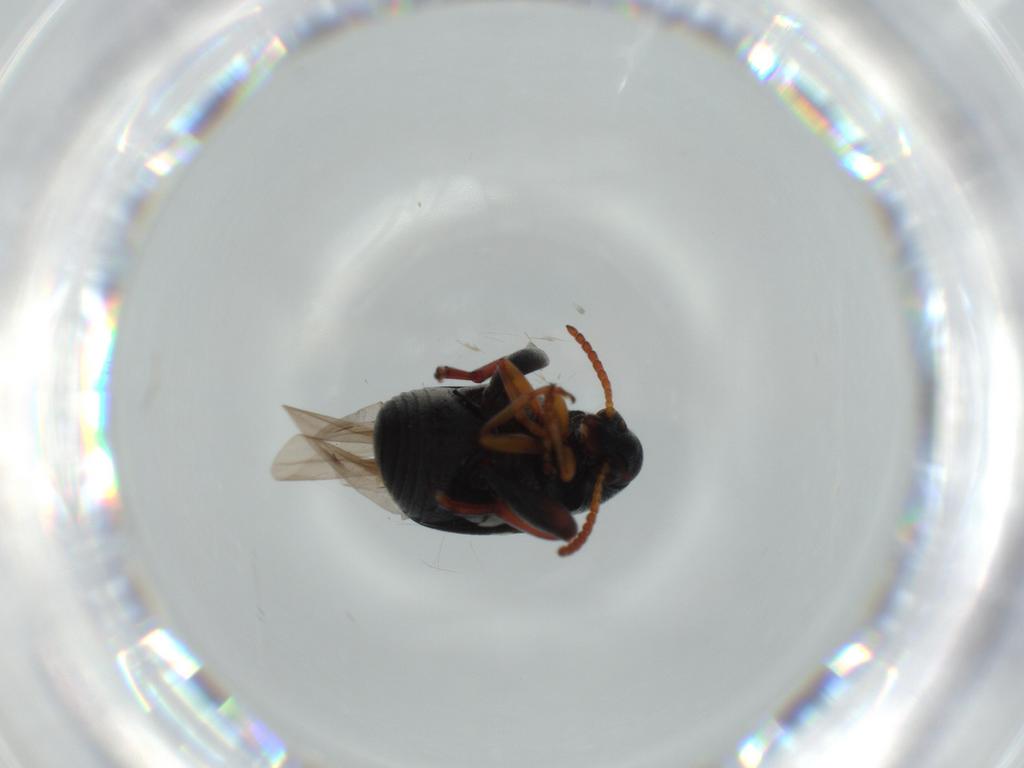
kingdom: Animalia
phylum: Arthropoda
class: Insecta
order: Coleoptera
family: Chrysomelidae
